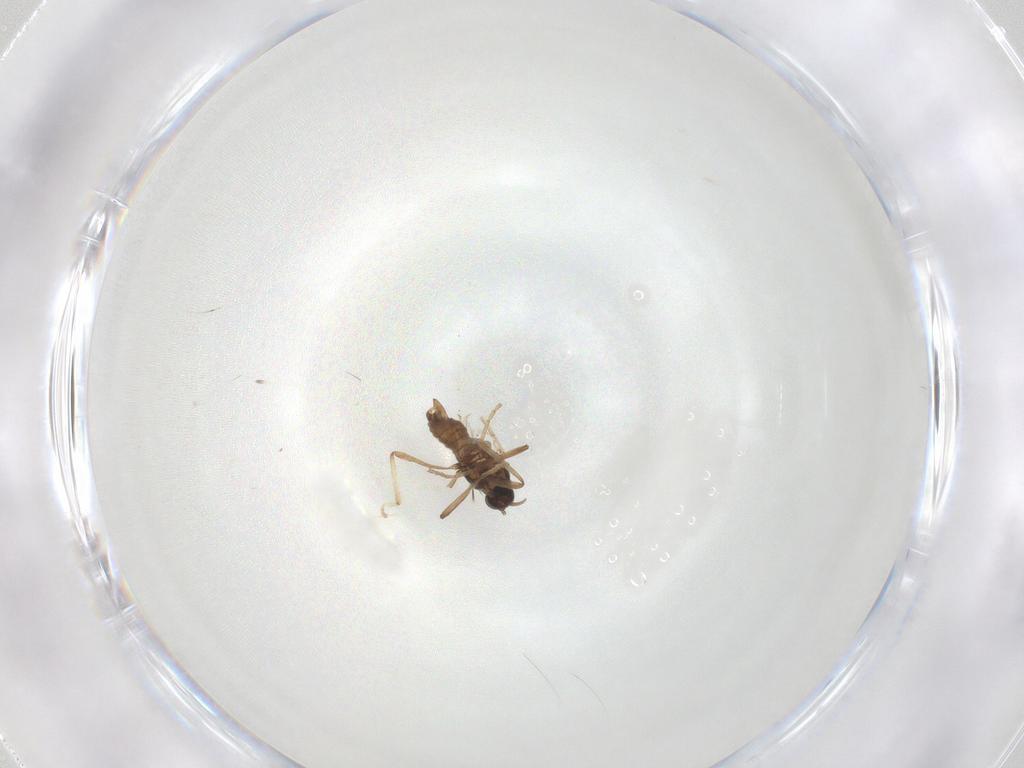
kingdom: Animalia
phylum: Arthropoda
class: Insecta
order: Diptera
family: Cecidomyiidae
